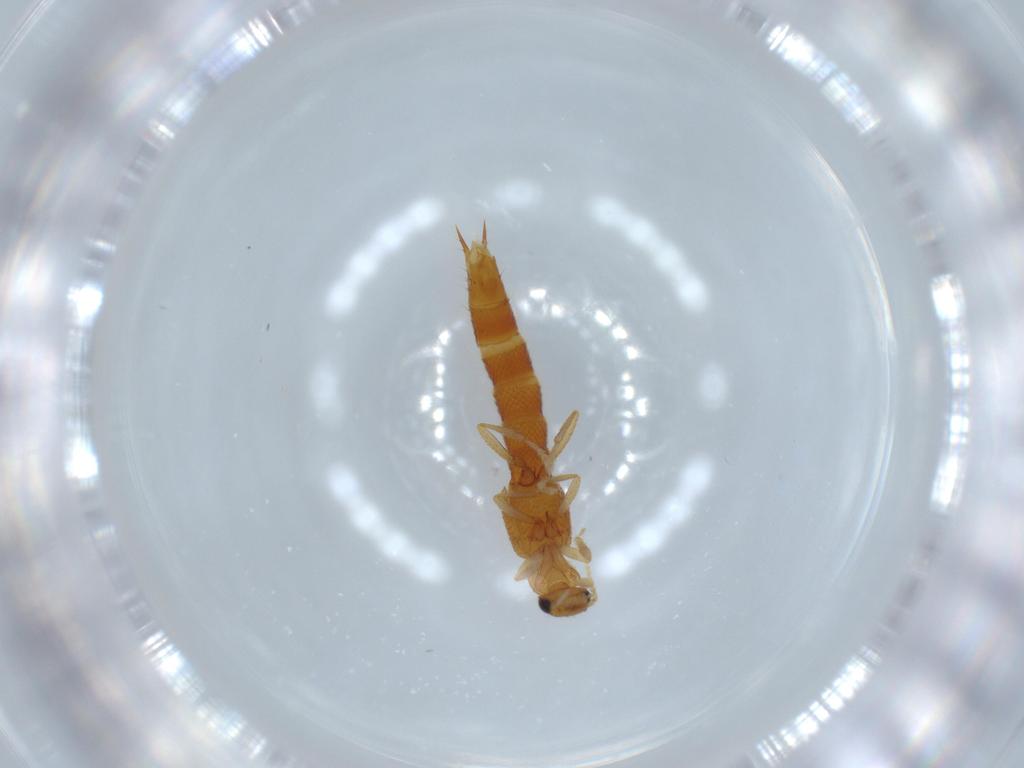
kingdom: Animalia
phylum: Arthropoda
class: Insecta
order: Coleoptera
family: Staphylinidae
